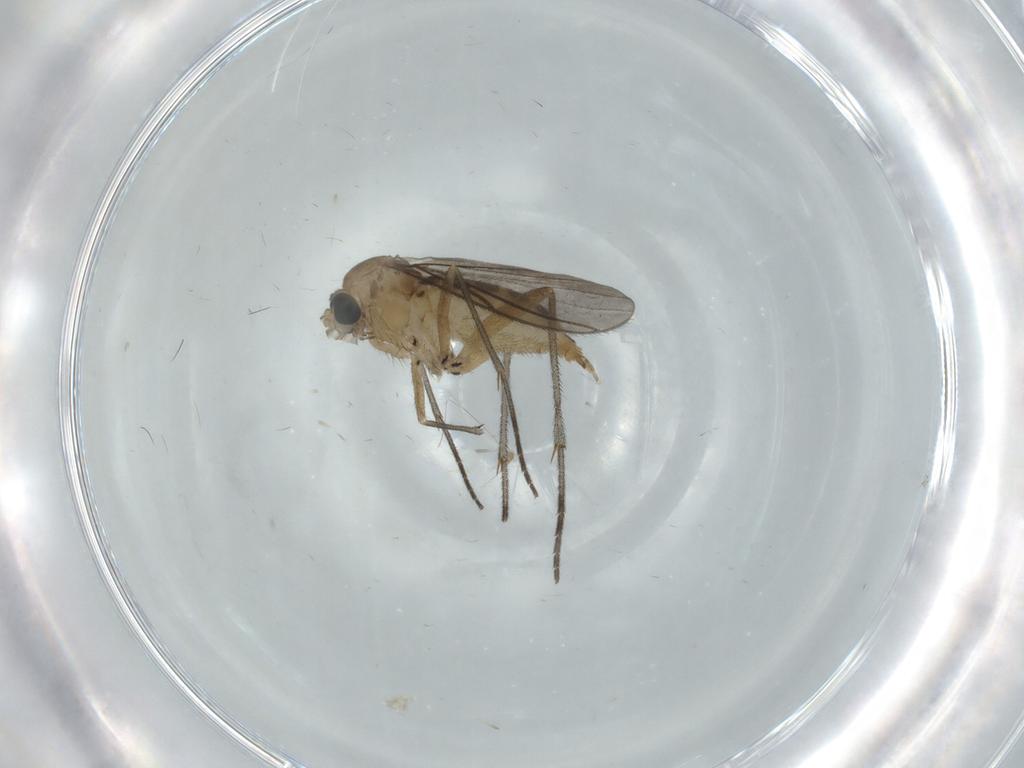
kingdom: Animalia
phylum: Arthropoda
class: Insecta
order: Diptera
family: Sciaridae
